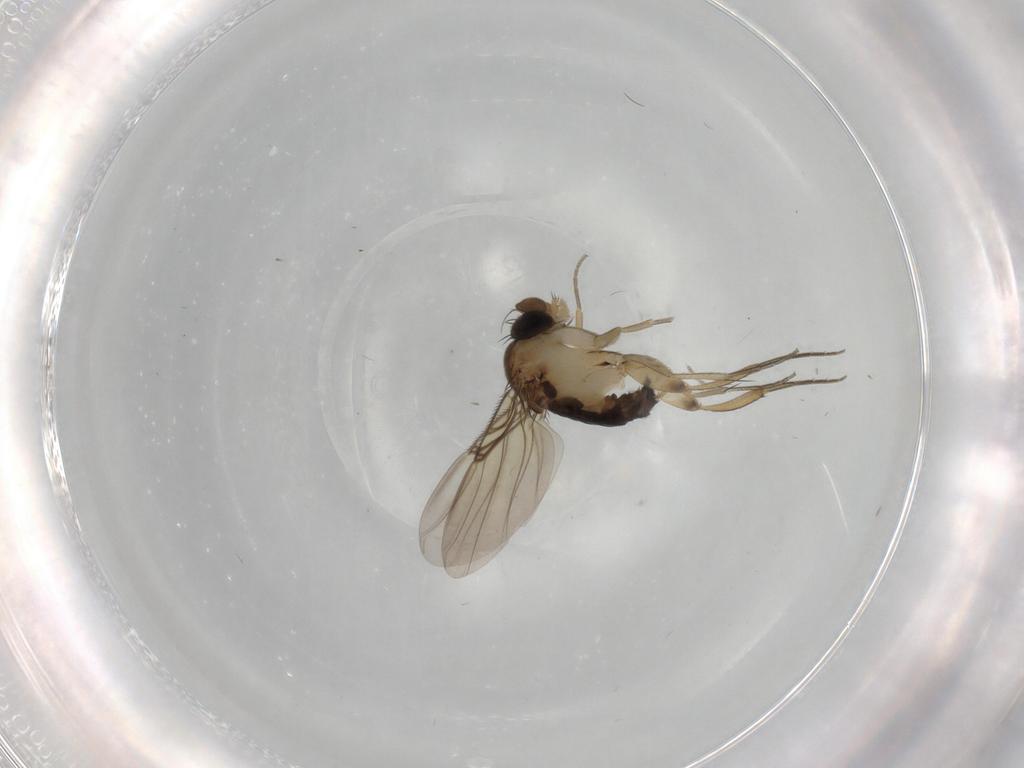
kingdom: Animalia
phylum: Arthropoda
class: Insecta
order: Diptera
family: Phoridae
